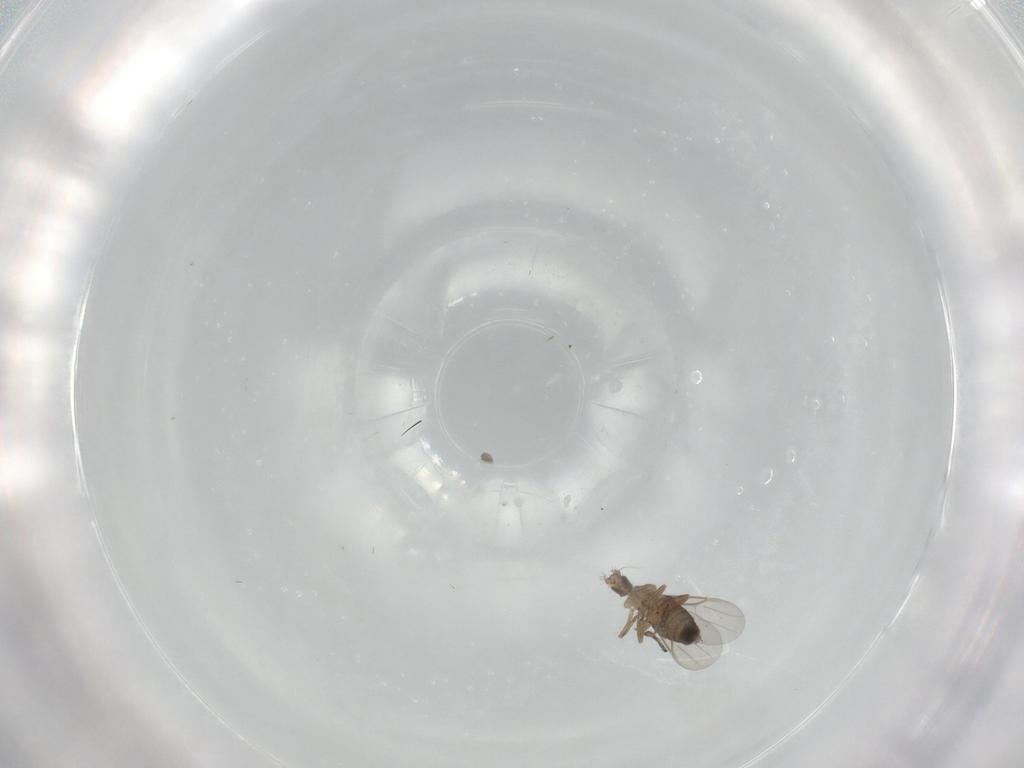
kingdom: Animalia
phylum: Arthropoda
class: Insecta
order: Diptera
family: Phoridae
